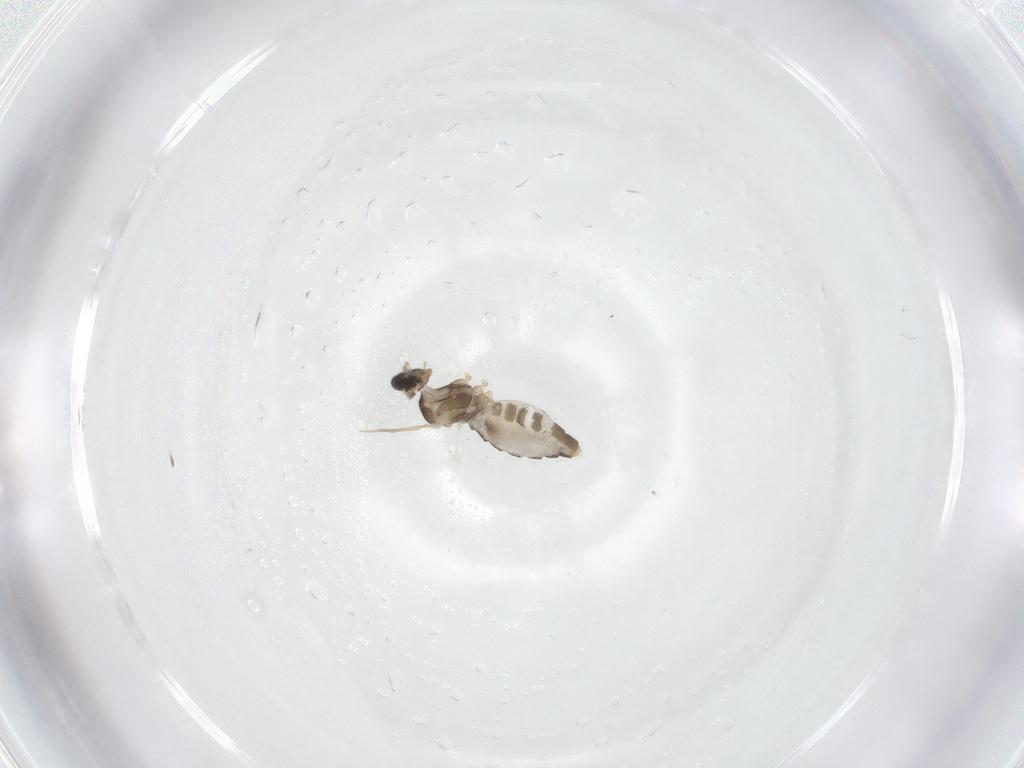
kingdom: Animalia
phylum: Arthropoda
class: Insecta
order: Diptera
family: Cecidomyiidae
